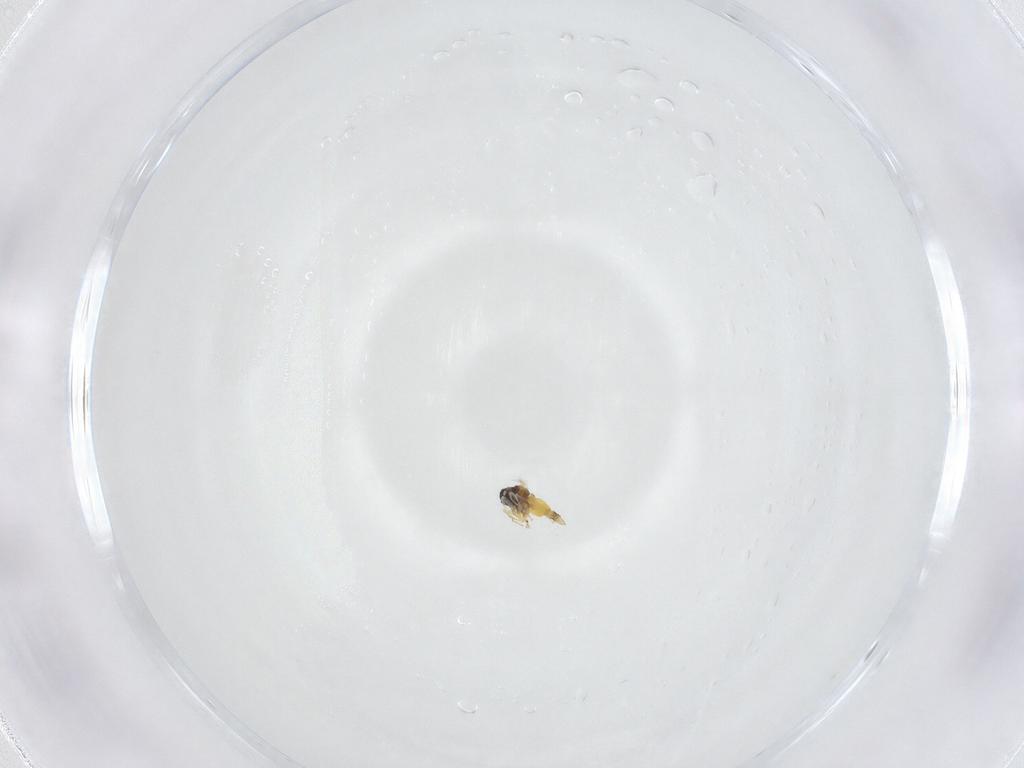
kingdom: Animalia
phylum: Arthropoda
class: Insecta
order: Hemiptera
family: Aleyrodidae
